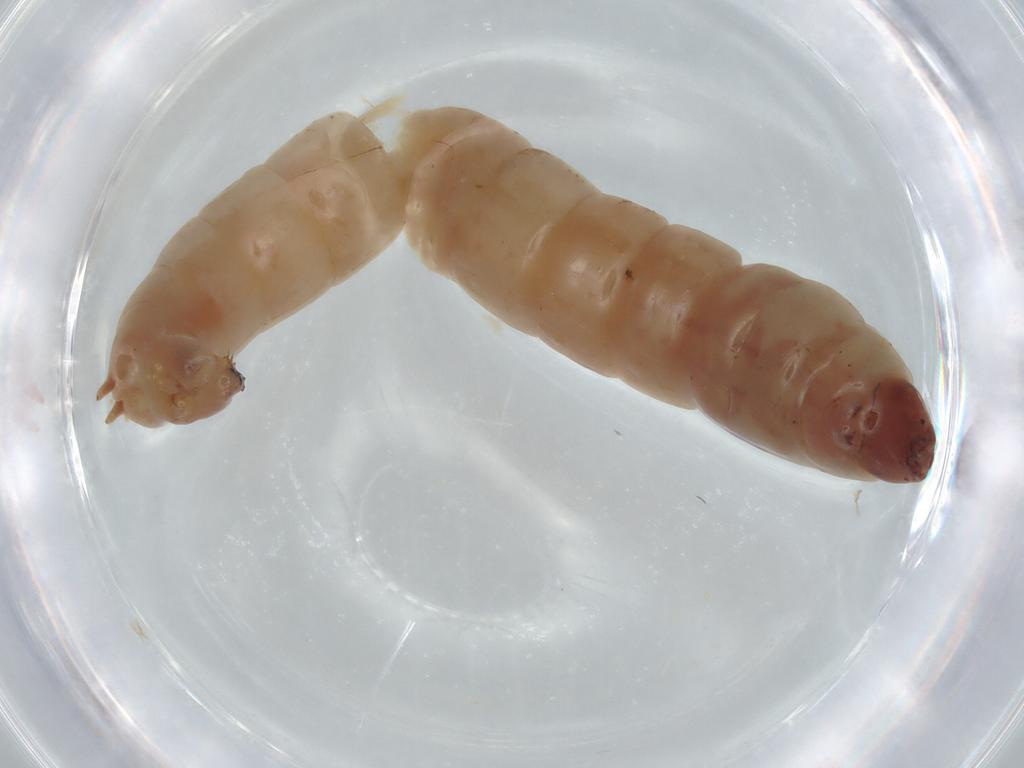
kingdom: Animalia
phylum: Arthropoda
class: Insecta
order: Diptera
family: Chironomidae
